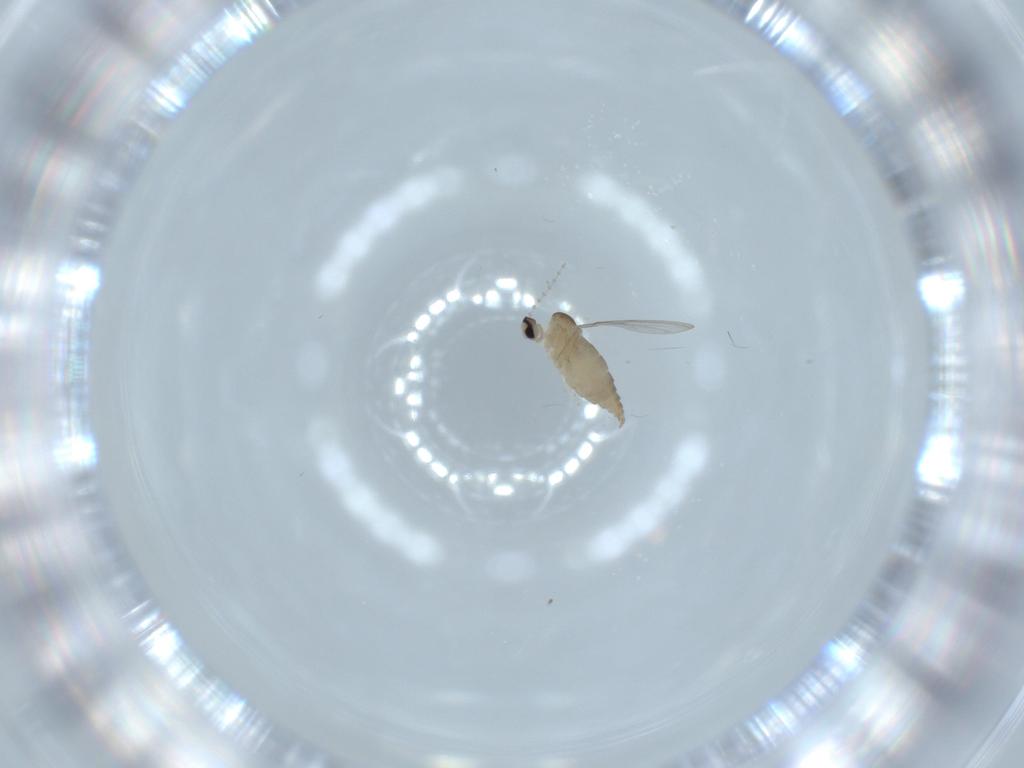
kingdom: Animalia
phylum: Arthropoda
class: Insecta
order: Diptera
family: Cecidomyiidae
